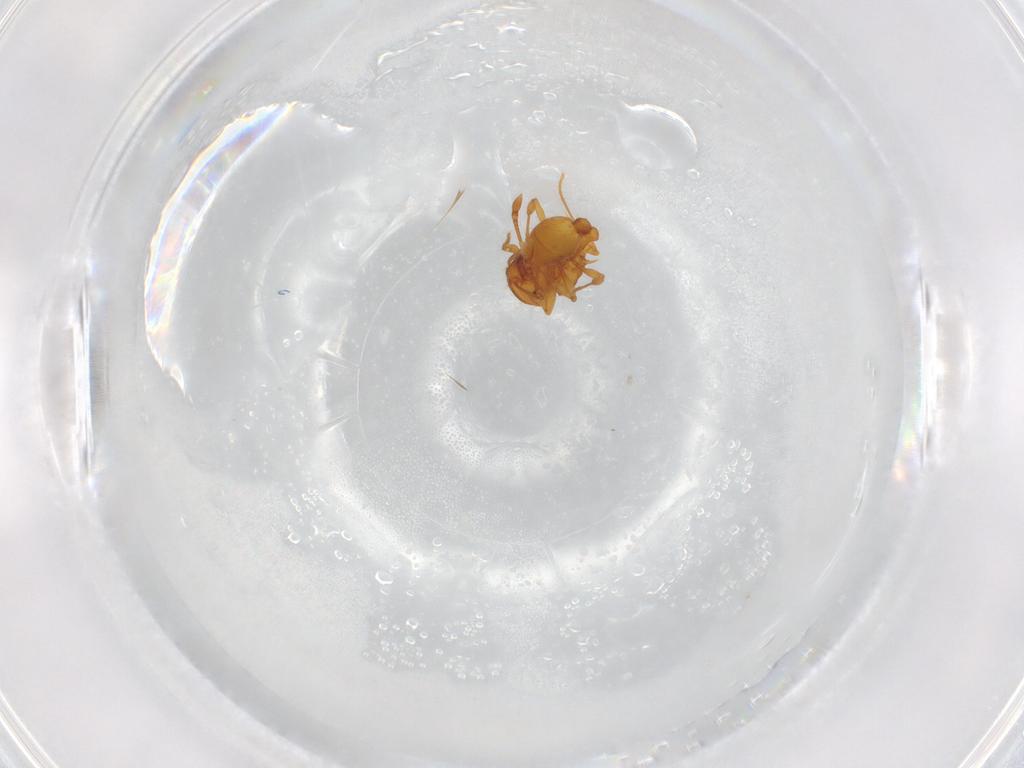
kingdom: Animalia
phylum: Arthropoda
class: Insecta
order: Hymenoptera
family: Formicidae
